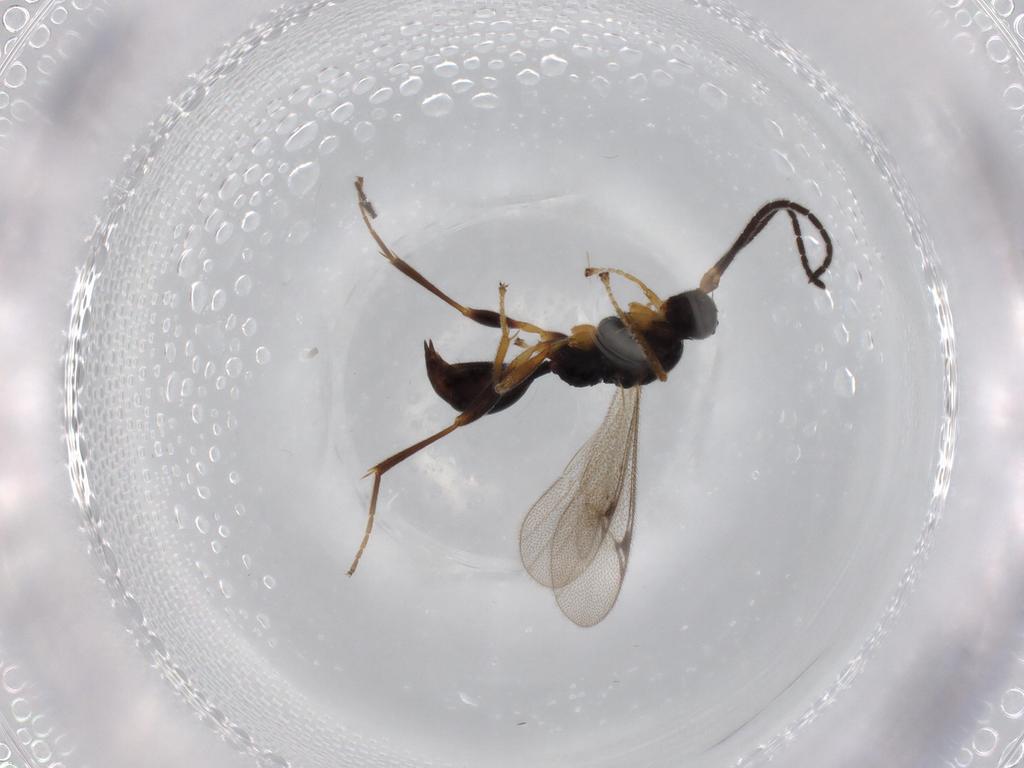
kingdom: Animalia
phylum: Arthropoda
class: Insecta
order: Hymenoptera
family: Proctotrupidae
